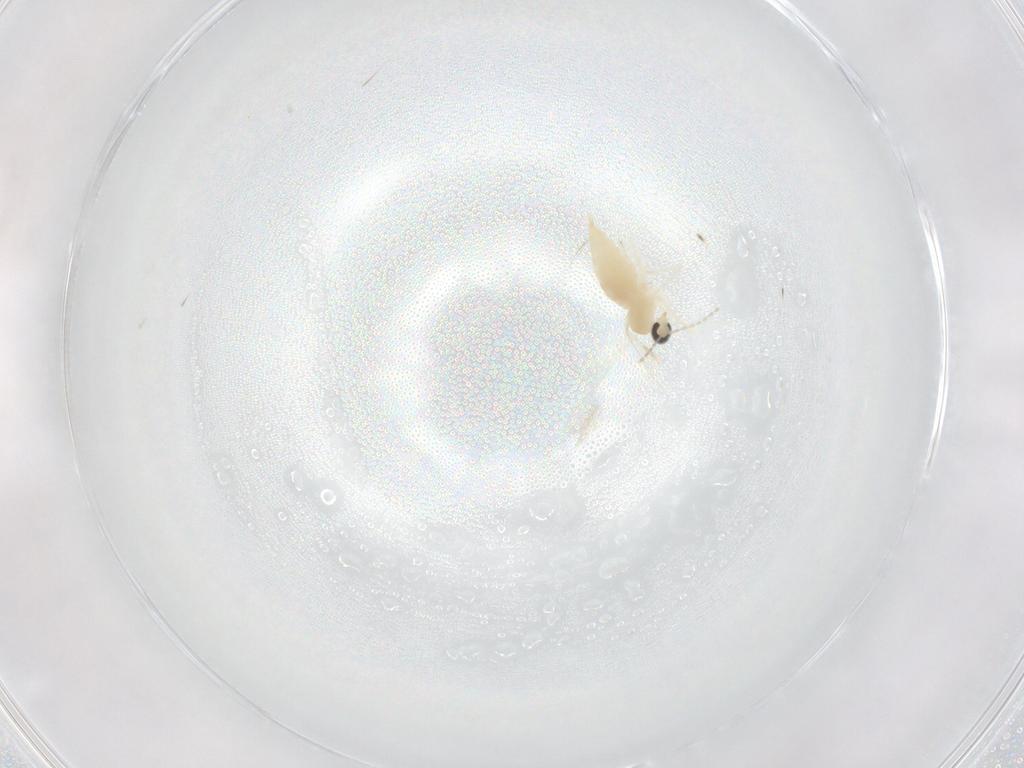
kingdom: Animalia
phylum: Arthropoda
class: Insecta
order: Diptera
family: Cecidomyiidae
